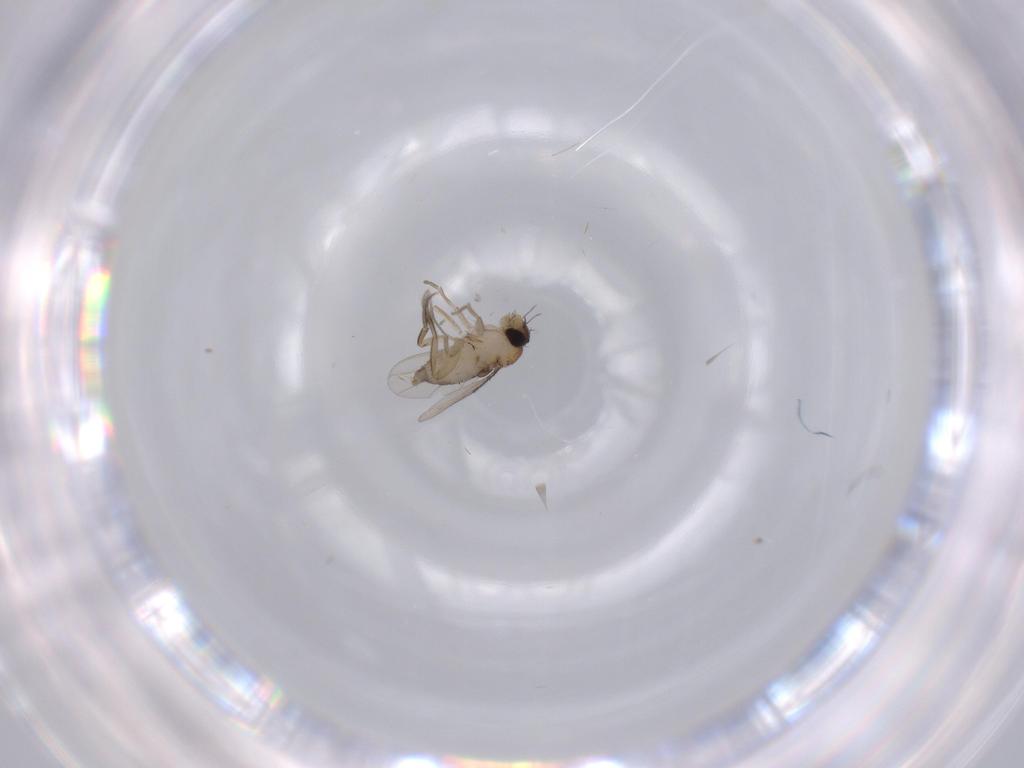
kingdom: Animalia
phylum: Arthropoda
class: Insecta
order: Diptera
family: Phoridae
